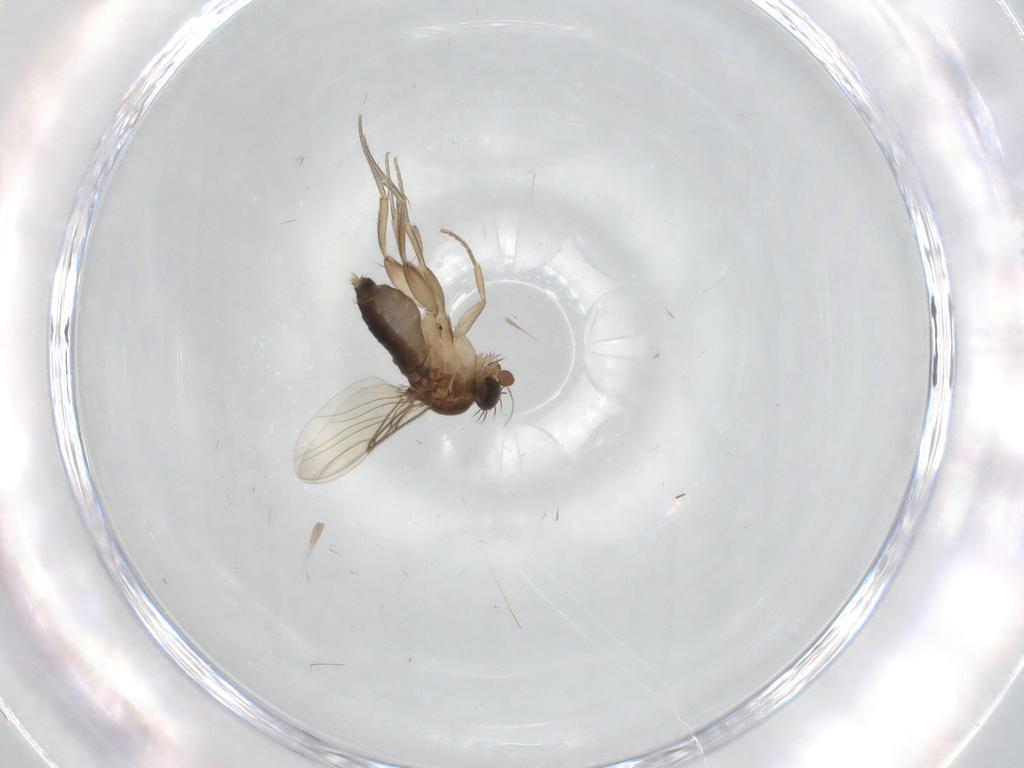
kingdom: Animalia
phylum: Arthropoda
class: Insecta
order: Diptera
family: Phoridae
